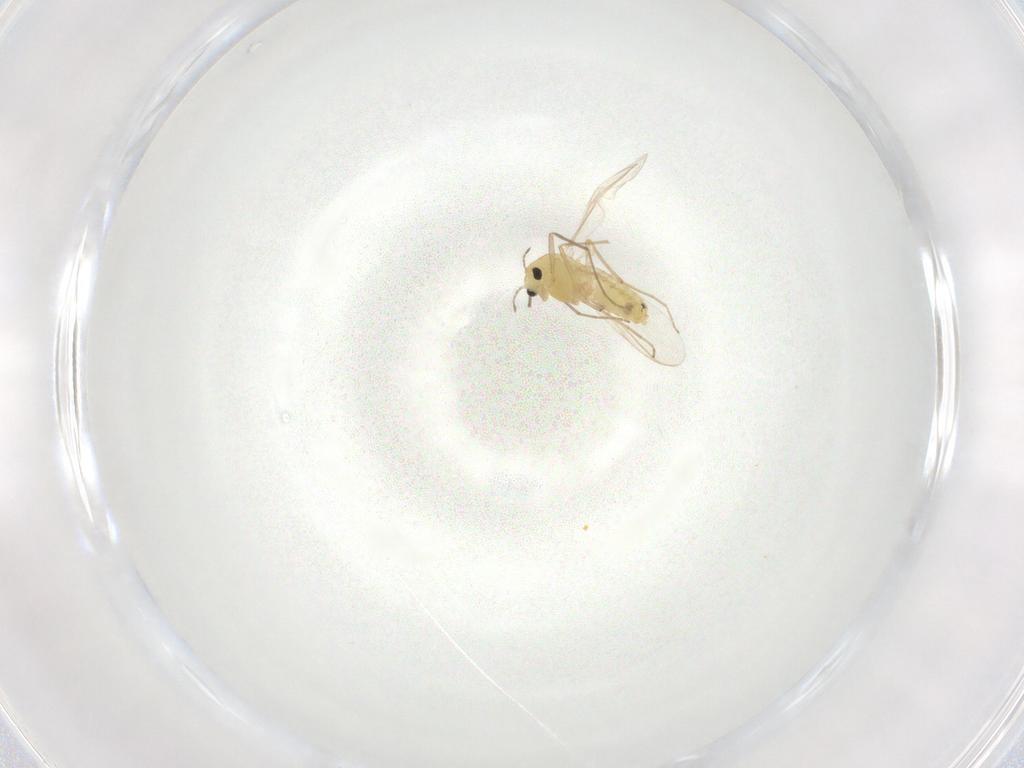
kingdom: Animalia
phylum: Arthropoda
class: Insecta
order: Diptera
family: Chironomidae
